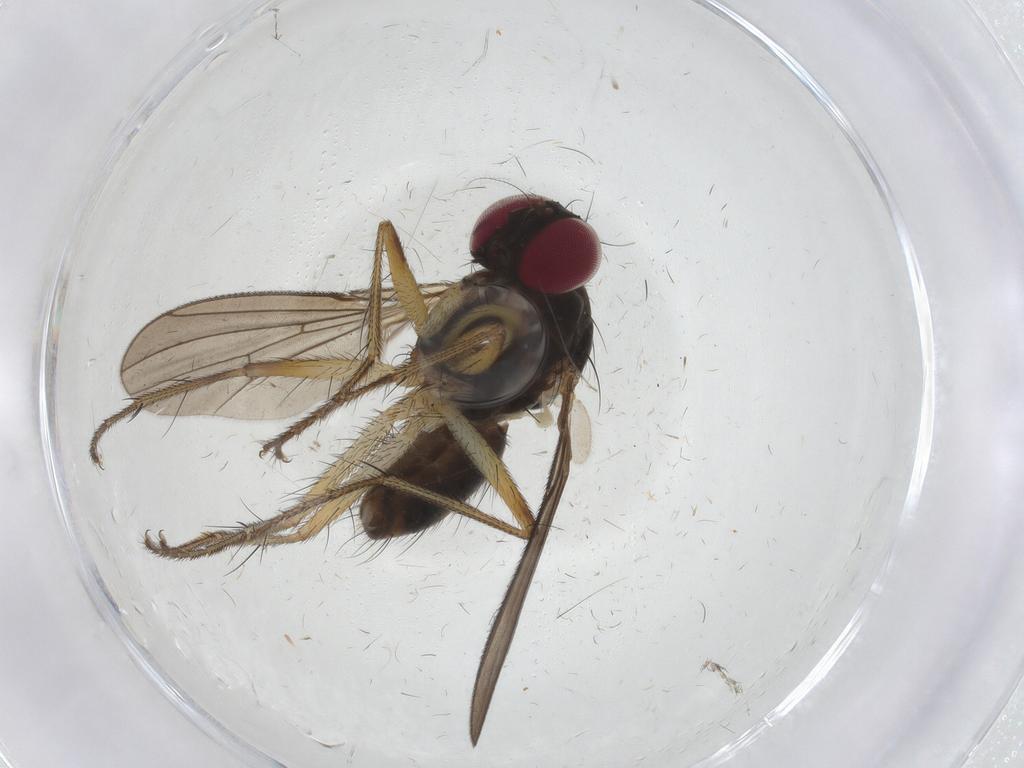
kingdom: Animalia
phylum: Arthropoda
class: Insecta
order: Diptera
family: Anthomyiidae
